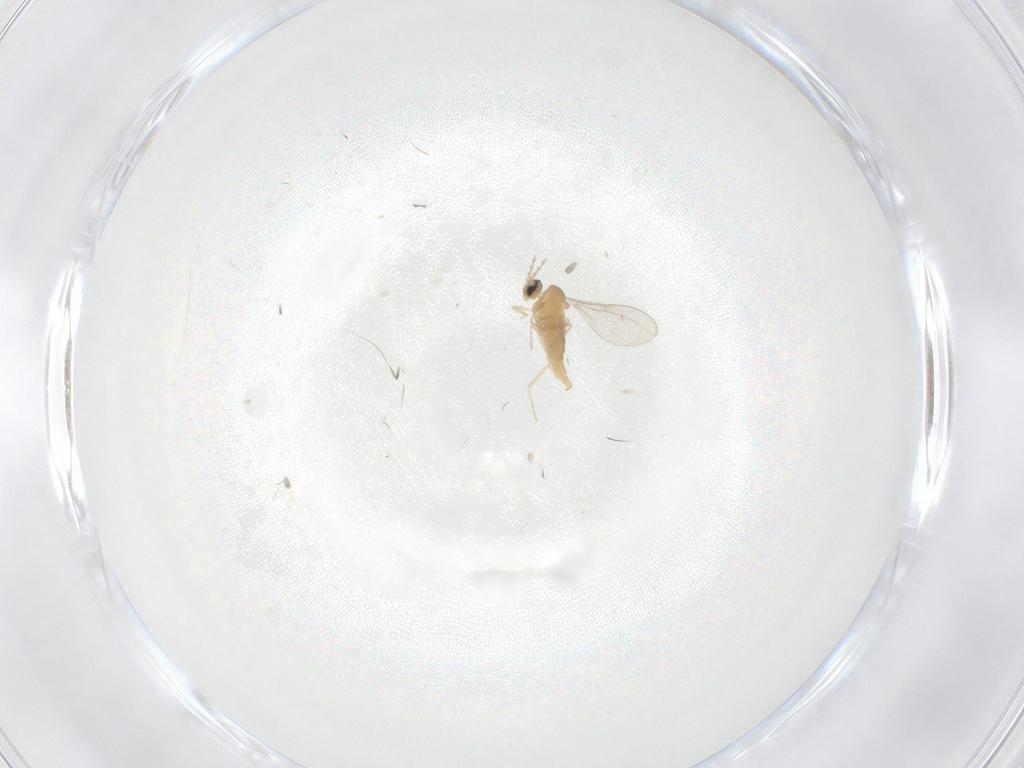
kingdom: Animalia
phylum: Arthropoda
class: Insecta
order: Diptera
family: Cecidomyiidae
